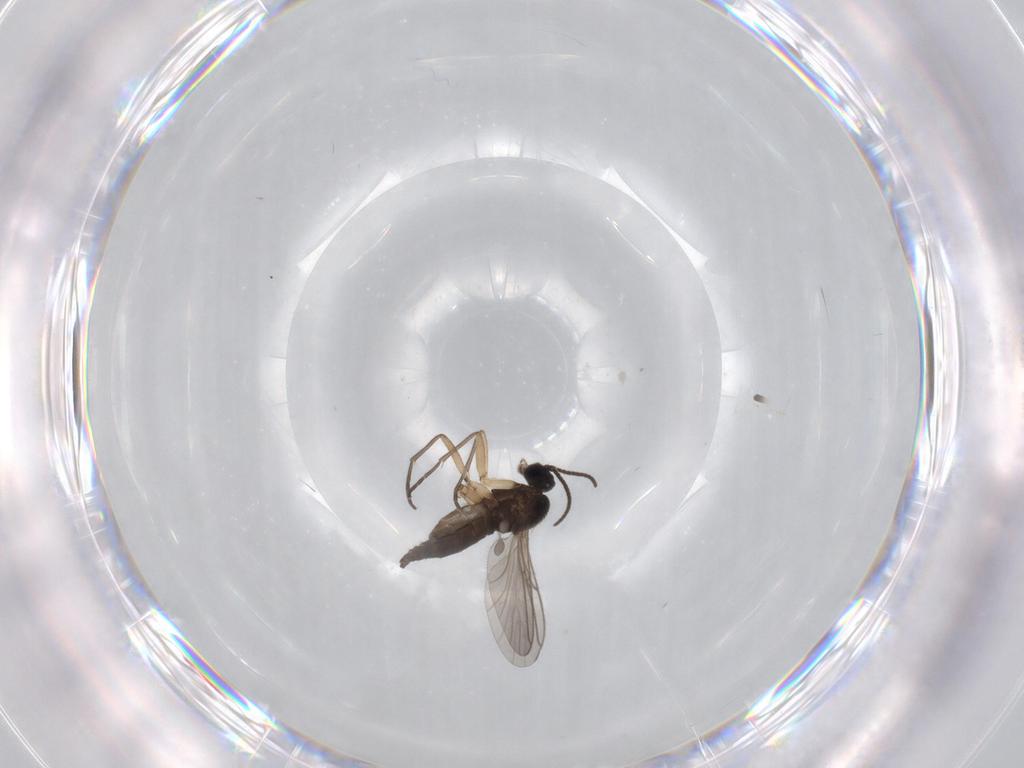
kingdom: Animalia
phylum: Arthropoda
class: Insecta
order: Diptera
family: Sciaridae
